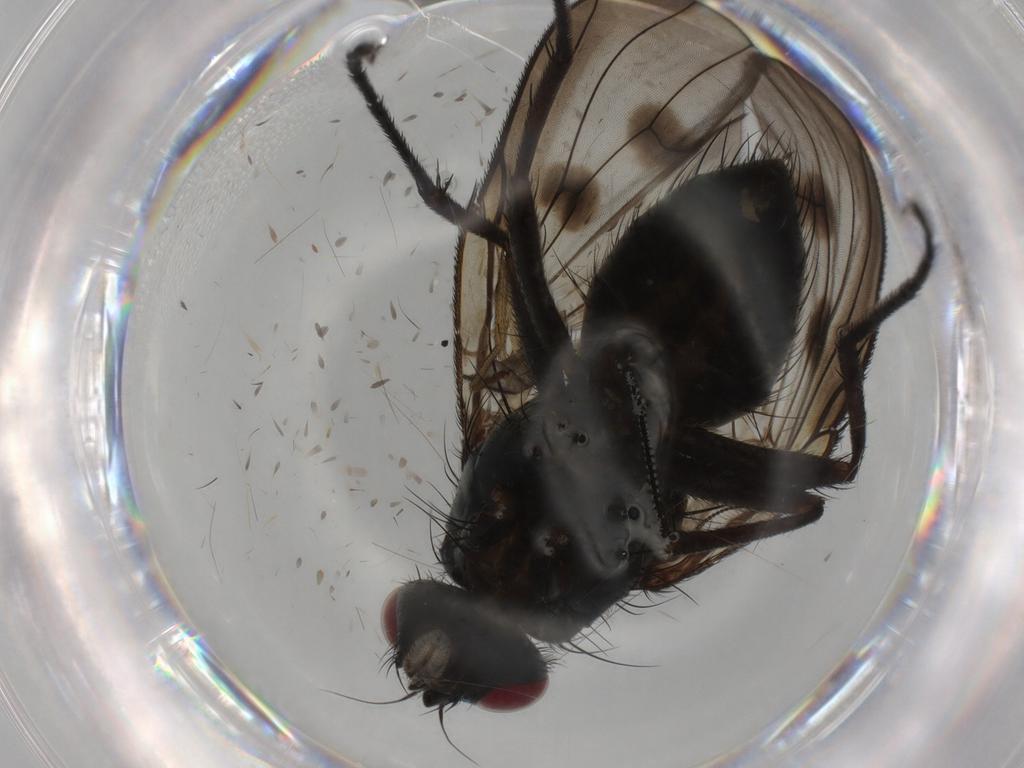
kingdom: Animalia
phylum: Arthropoda
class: Insecta
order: Diptera
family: Muscidae
